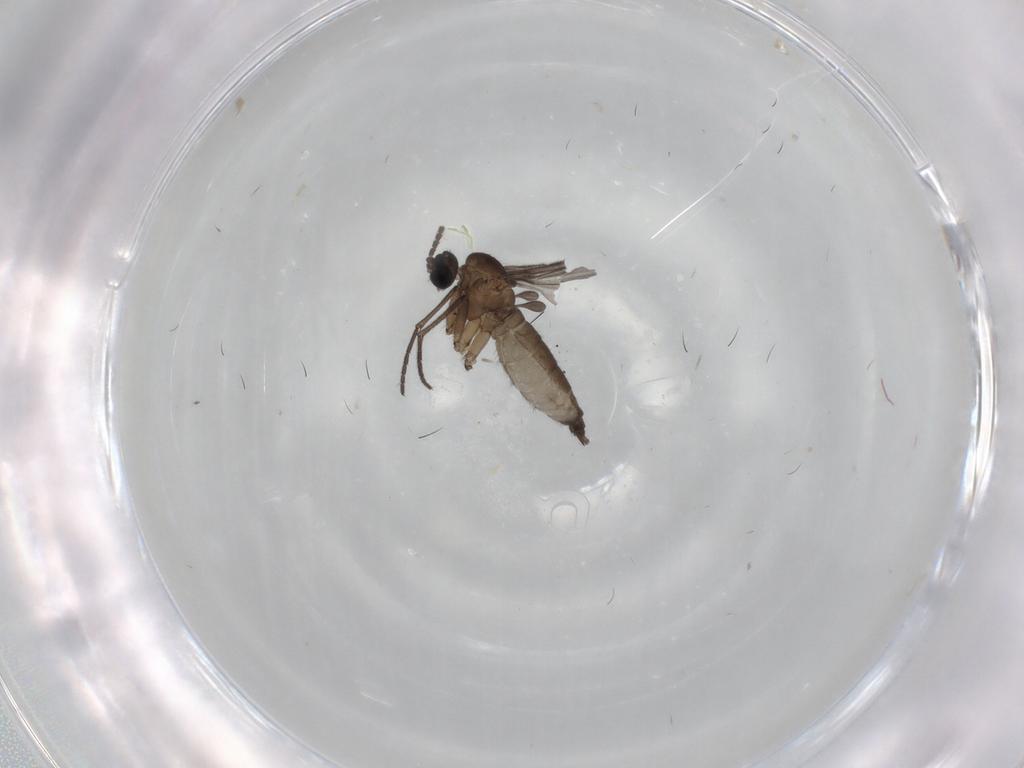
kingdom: Animalia
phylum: Arthropoda
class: Insecta
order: Diptera
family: Sciaridae
